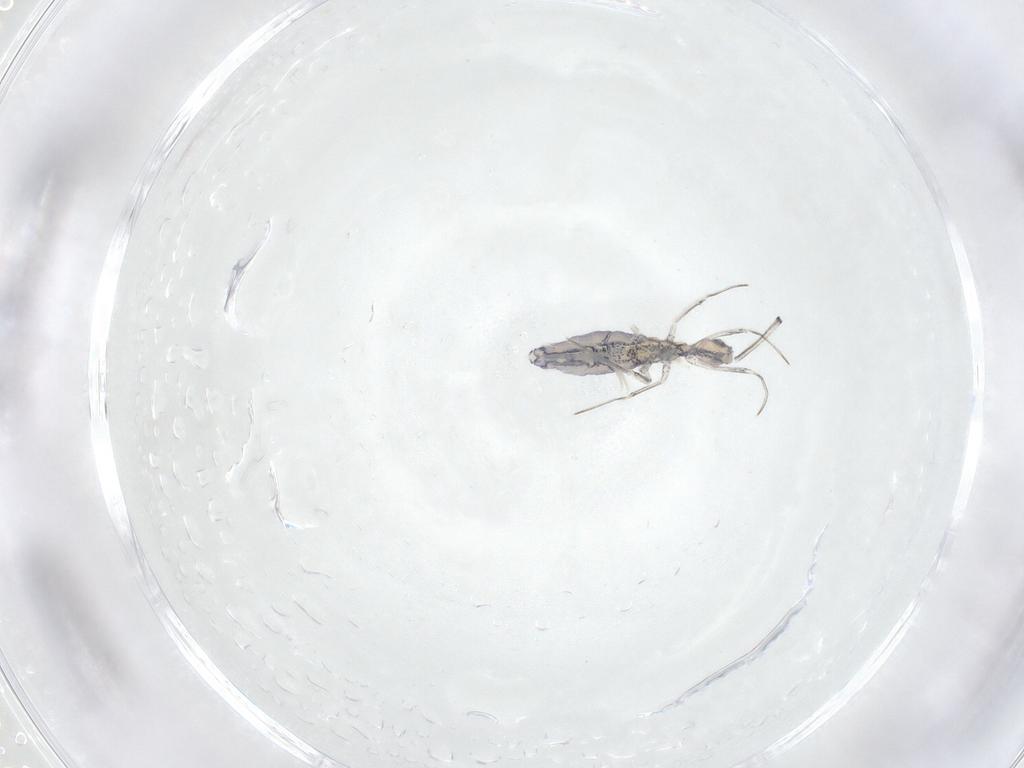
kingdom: Animalia
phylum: Arthropoda
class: Collembola
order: Entomobryomorpha
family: Paronellidae
